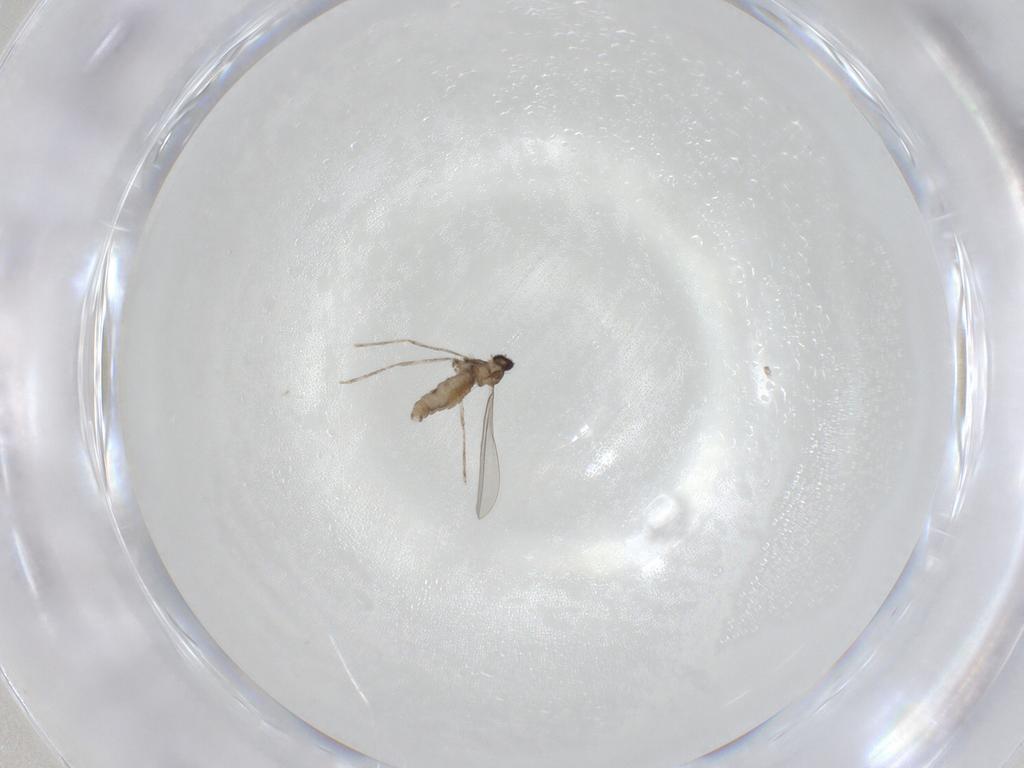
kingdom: Animalia
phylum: Arthropoda
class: Insecta
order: Diptera
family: Cecidomyiidae
